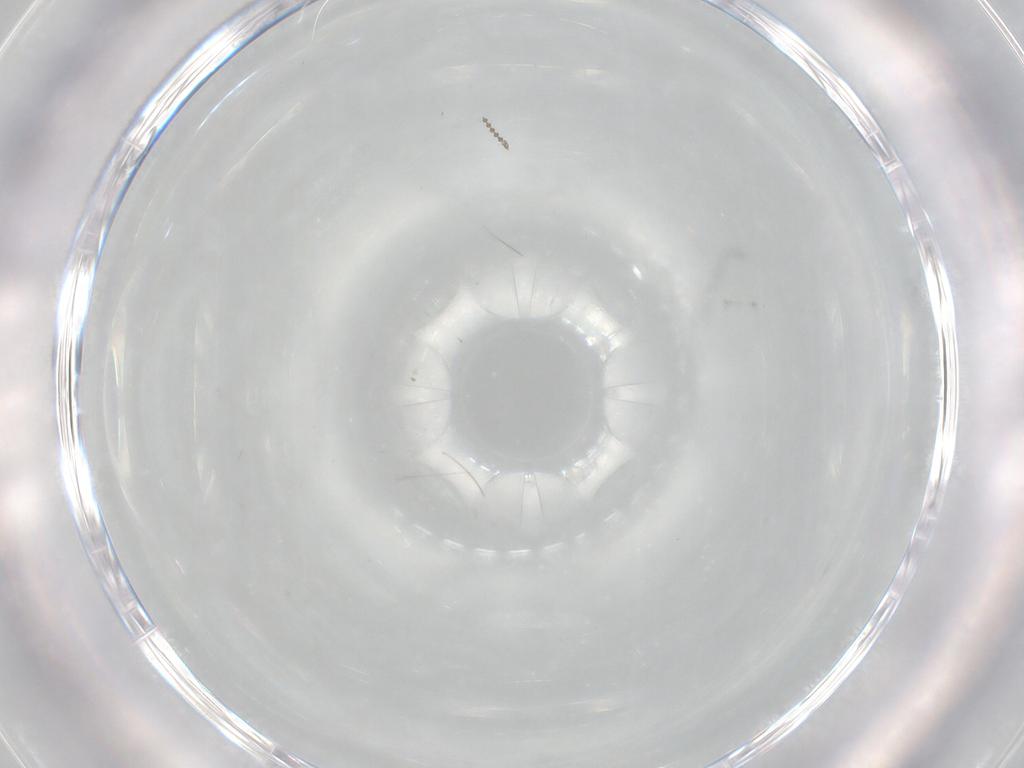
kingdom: Animalia
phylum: Arthropoda
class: Insecta
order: Diptera
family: Psychodidae
